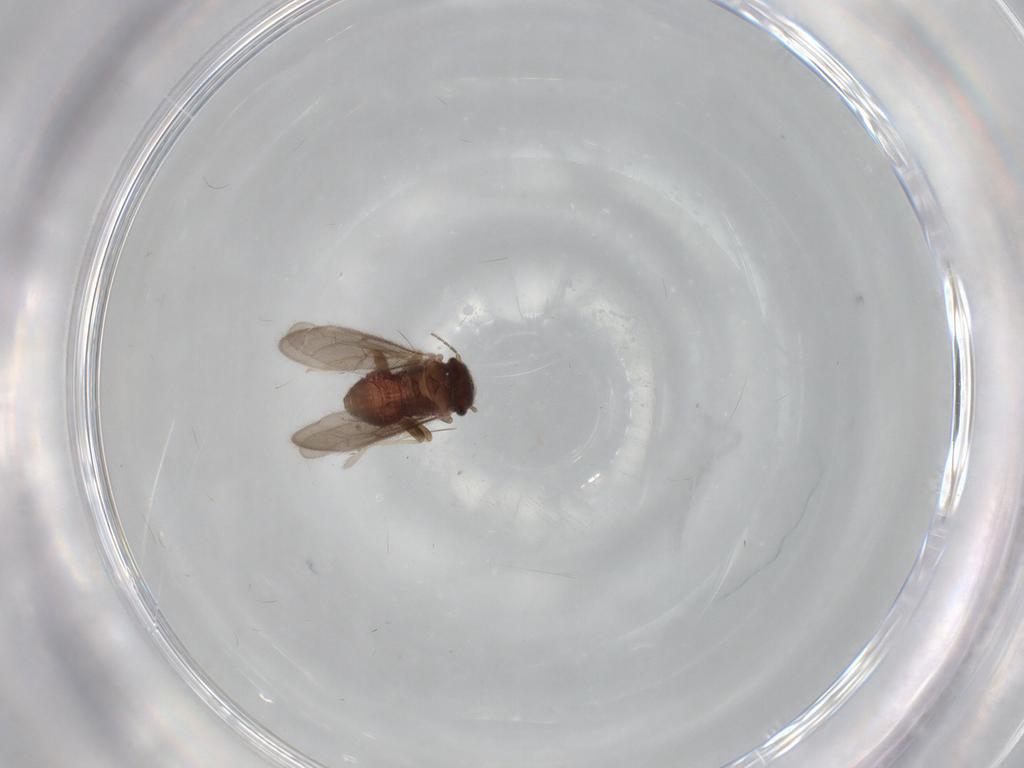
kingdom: Animalia
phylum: Arthropoda
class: Insecta
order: Psocodea
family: Archipsocidae
